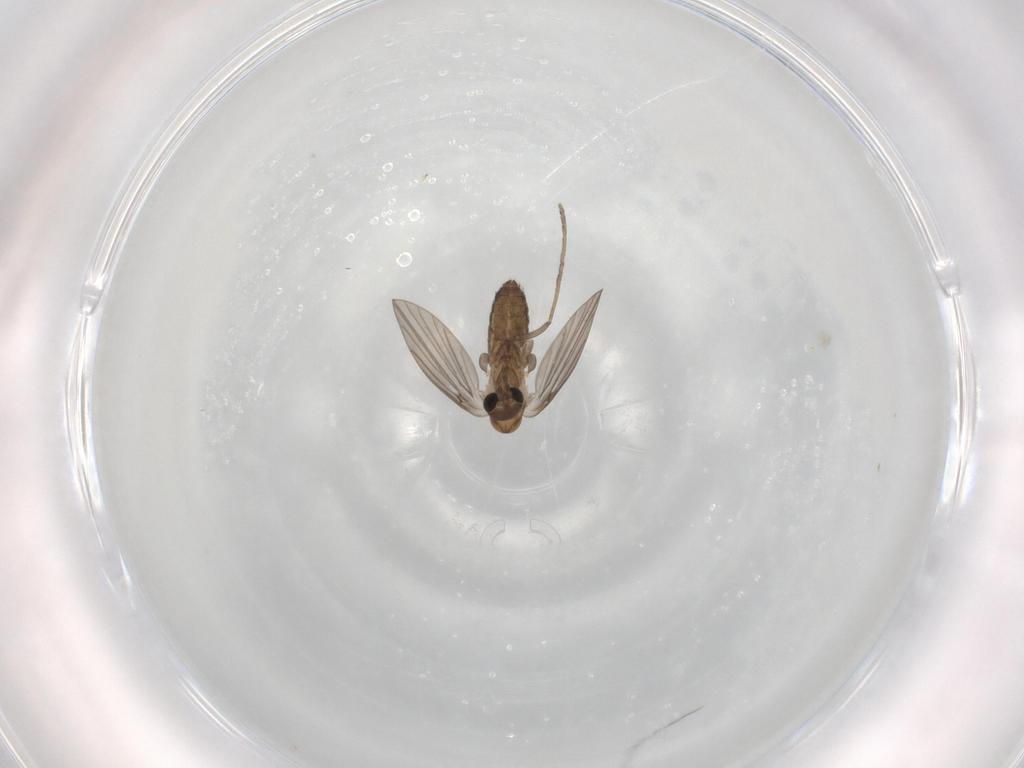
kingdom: Animalia
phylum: Arthropoda
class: Insecta
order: Diptera
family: Psychodidae
